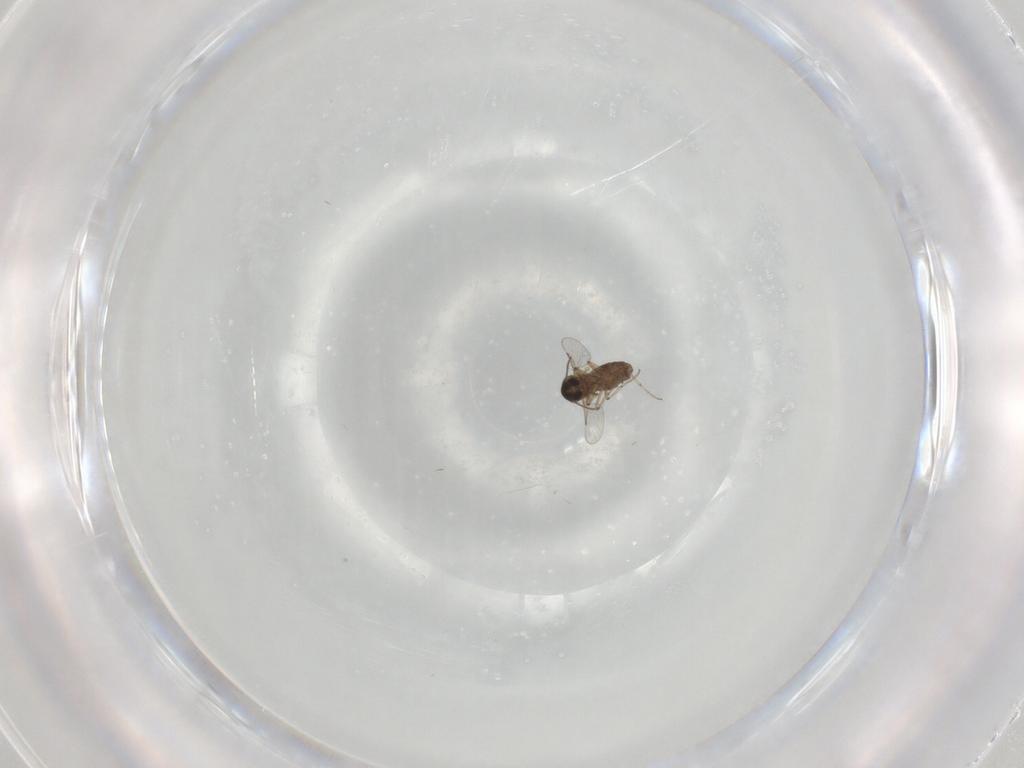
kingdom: Animalia
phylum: Arthropoda
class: Insecta
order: Diptera
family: Ceratopogonidae
